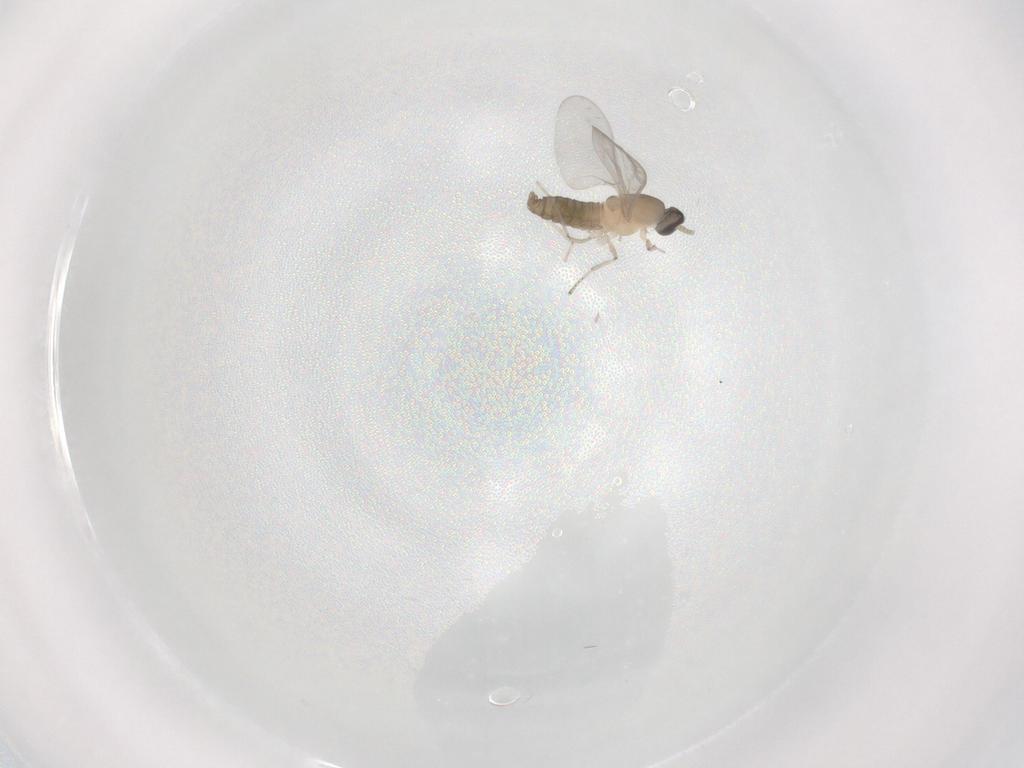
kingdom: Animalia
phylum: Arthropoda
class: Insecta
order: Diptera
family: Cecidomyiidae
